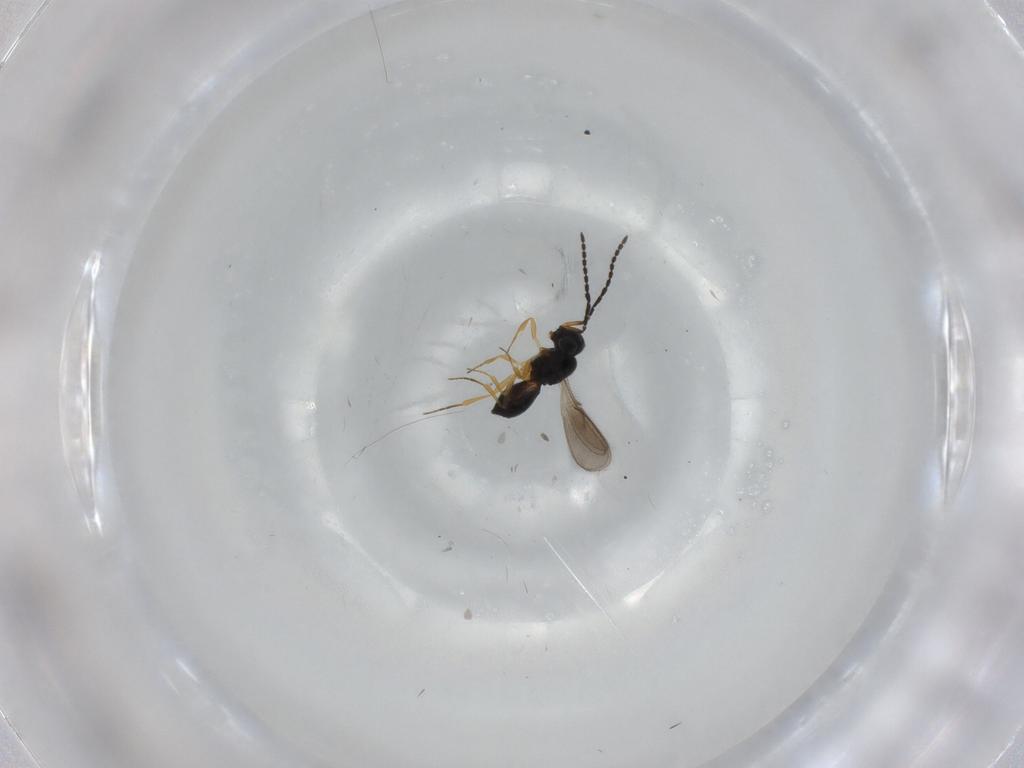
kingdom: Animalia
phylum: Arthropoda
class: Insecta
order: Hymenoptera
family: Scelionidae
